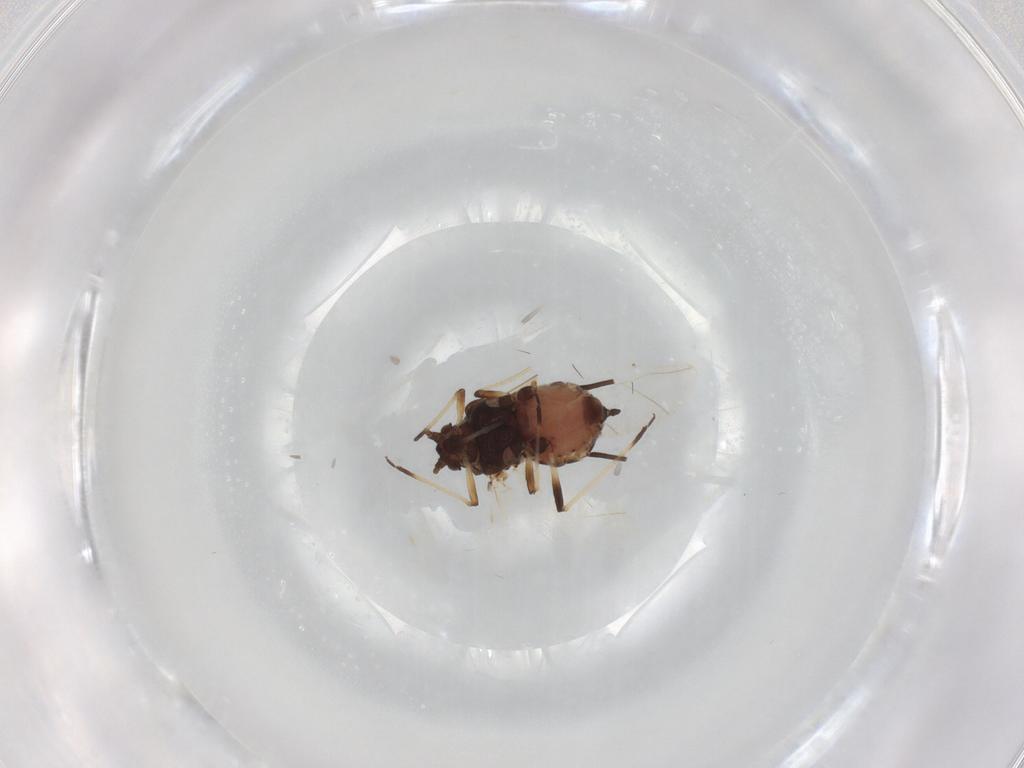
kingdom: Animalia
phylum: Arthropoda
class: Insecta
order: Hemiptera
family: Aphididae
